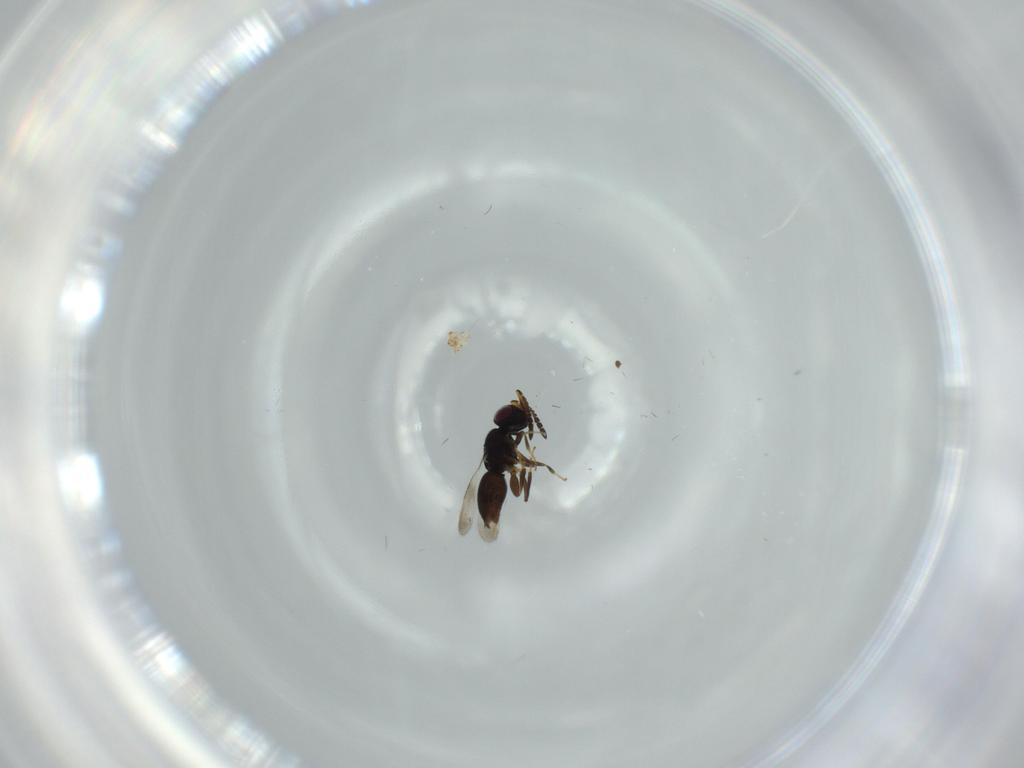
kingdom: Animalia
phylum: Arthropoda
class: Insecta
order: Hymenoptera
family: Ceraphronidae
